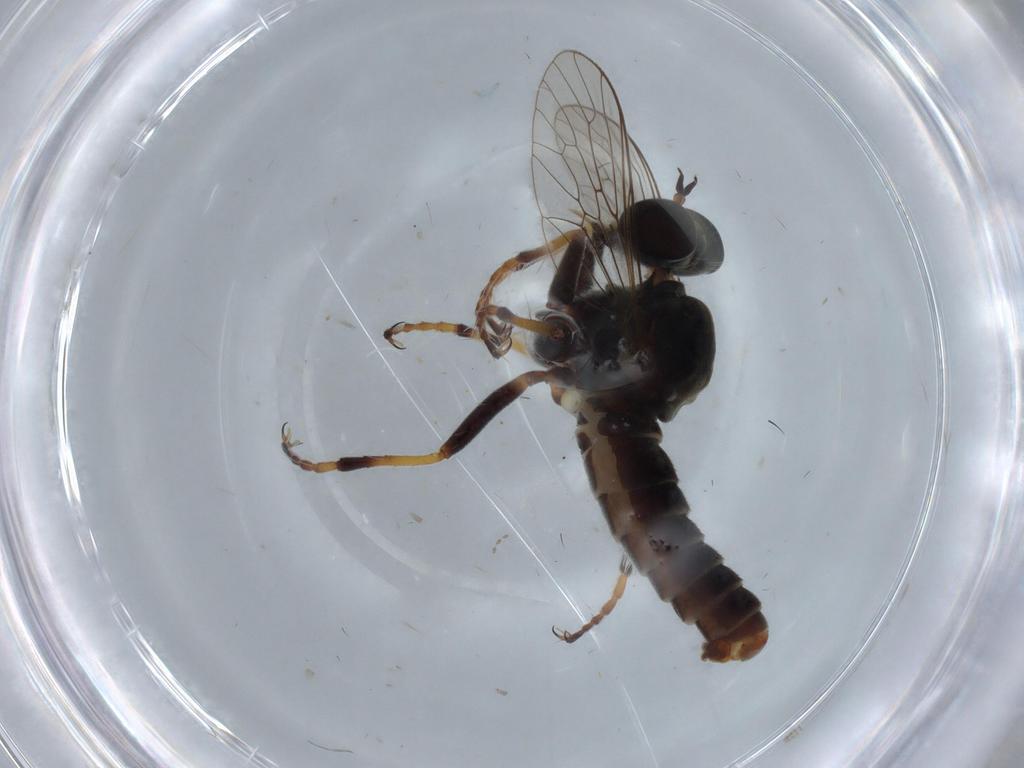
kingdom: Animalia
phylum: Arthropoda
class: Insecta
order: Diptera
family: Asilidae
